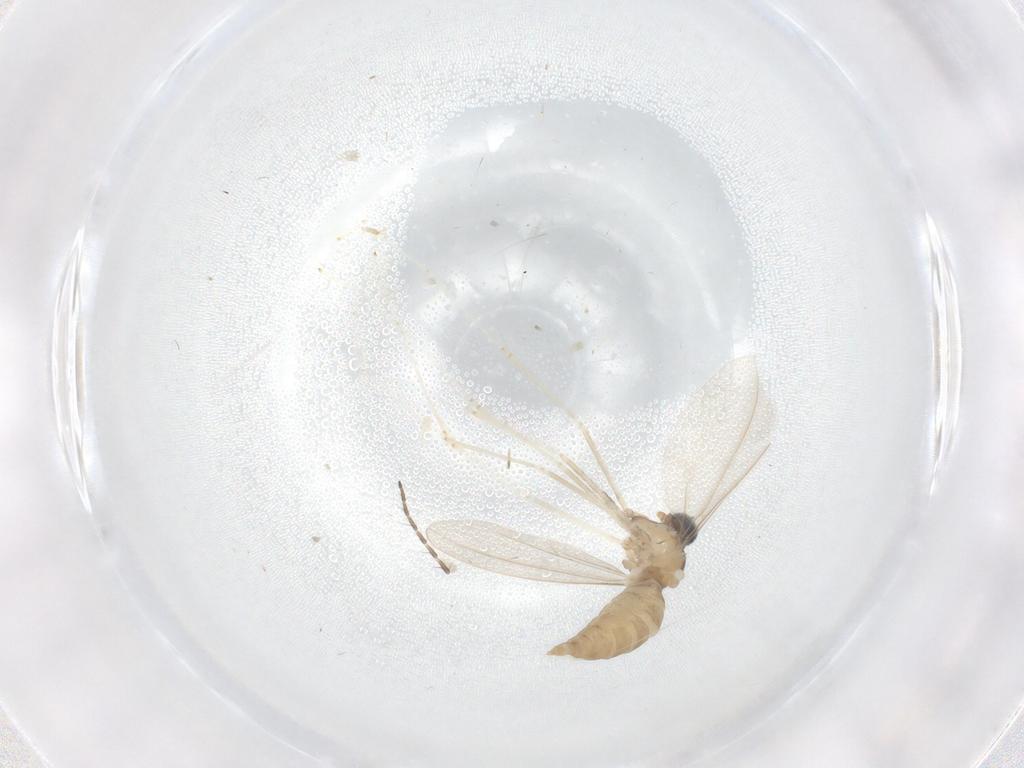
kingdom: Animalia
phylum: Arthropoda
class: Insecta
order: Diptera
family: Cecidomyiidae
